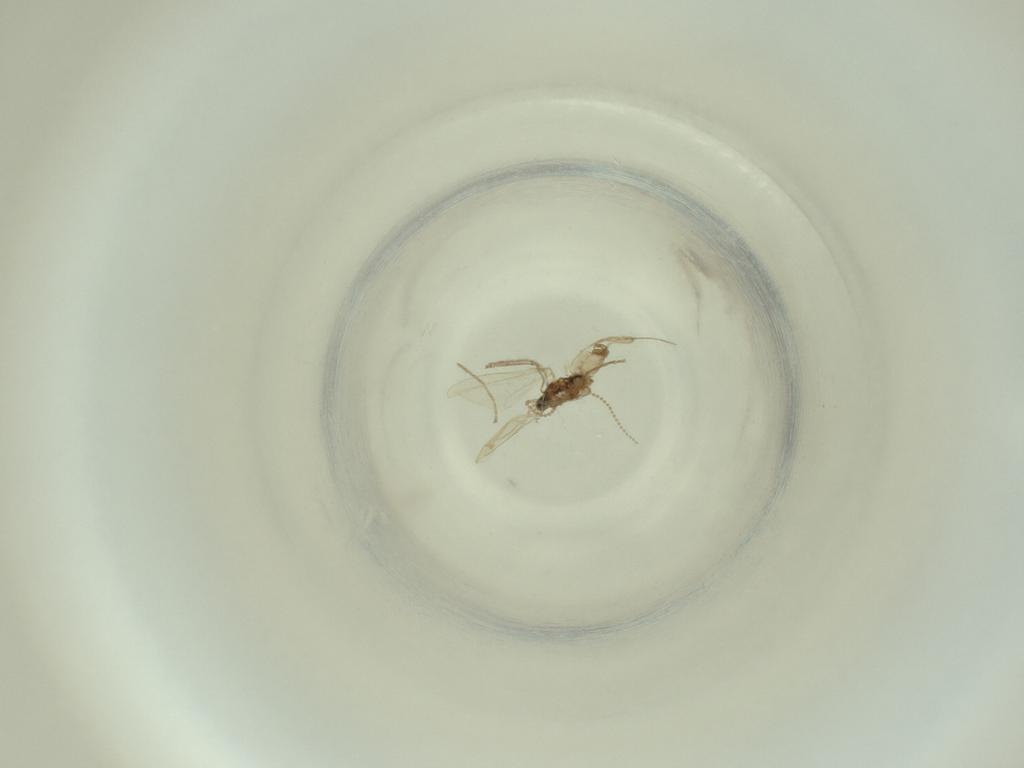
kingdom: Animalia
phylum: Arthropoda
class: Insecta
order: Diptera
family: Cecidomyiidae
